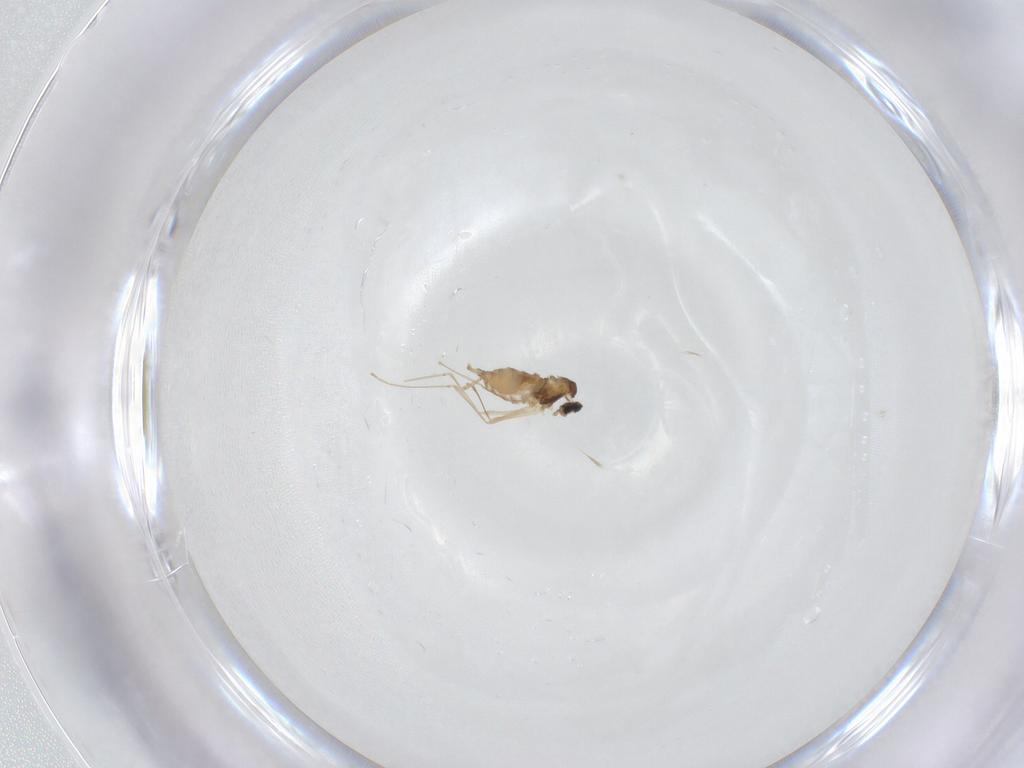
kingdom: Animalia
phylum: Arthropoda
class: Insecta
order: Diptera
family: Cecidomyiidae
